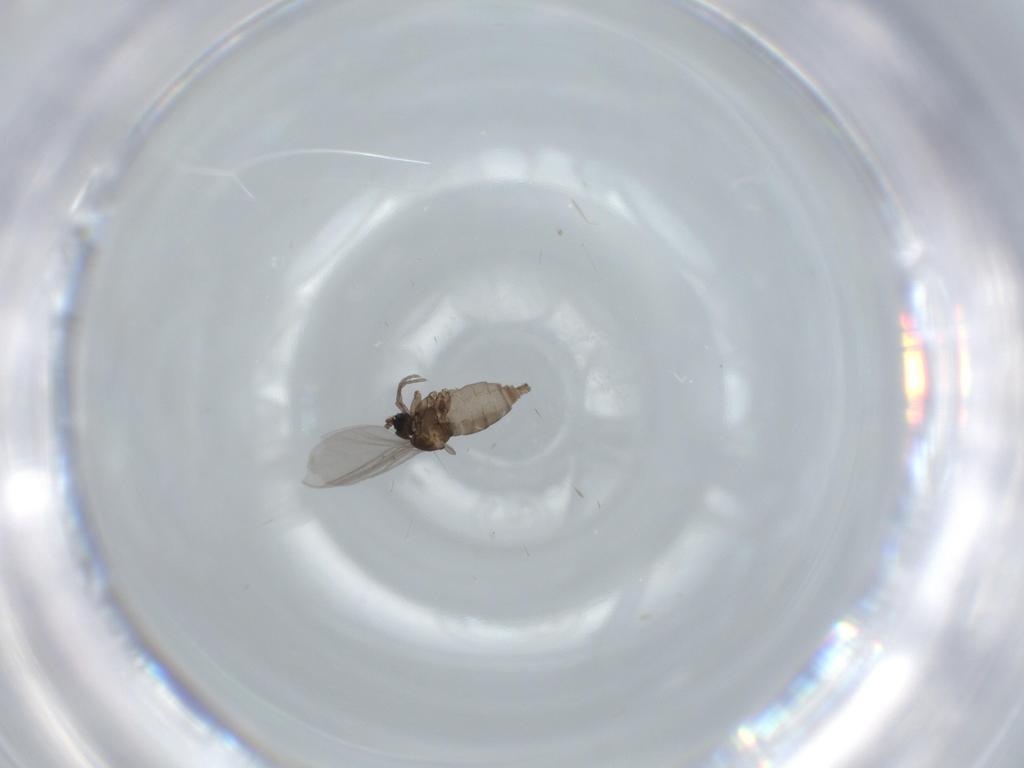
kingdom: Animalia
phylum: Arthropoda
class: Insecta
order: Diptera
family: Sciaridae
